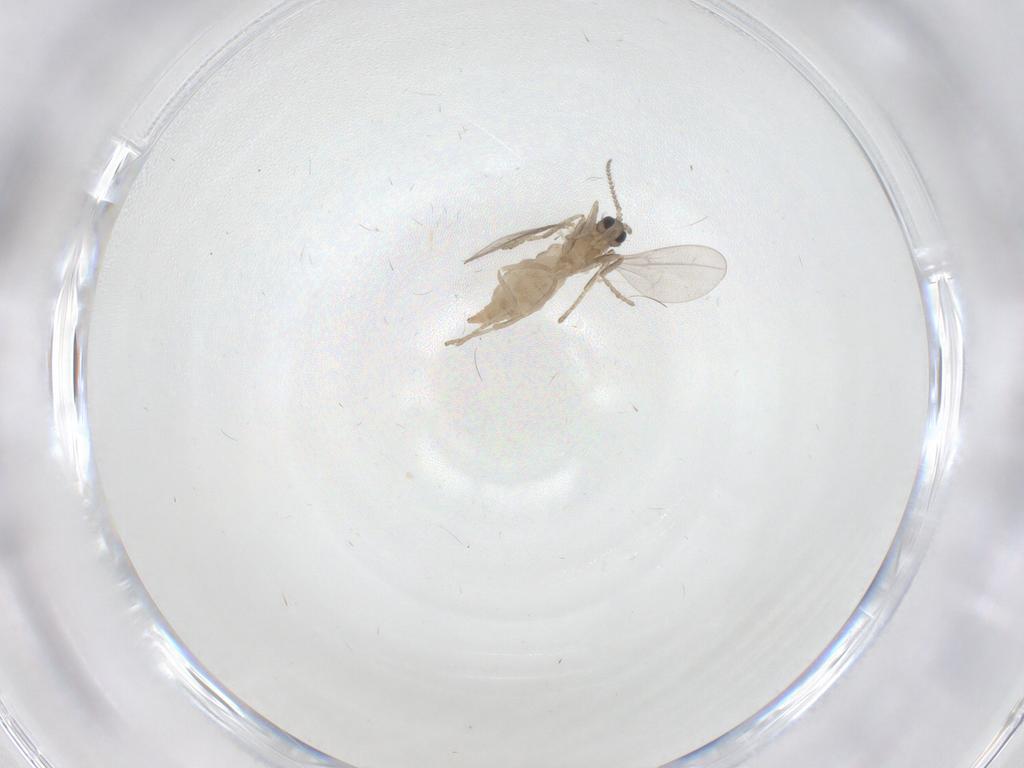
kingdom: Animalia
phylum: Arthropoda
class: Insecta
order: Diptera
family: Cecidomyiidae
